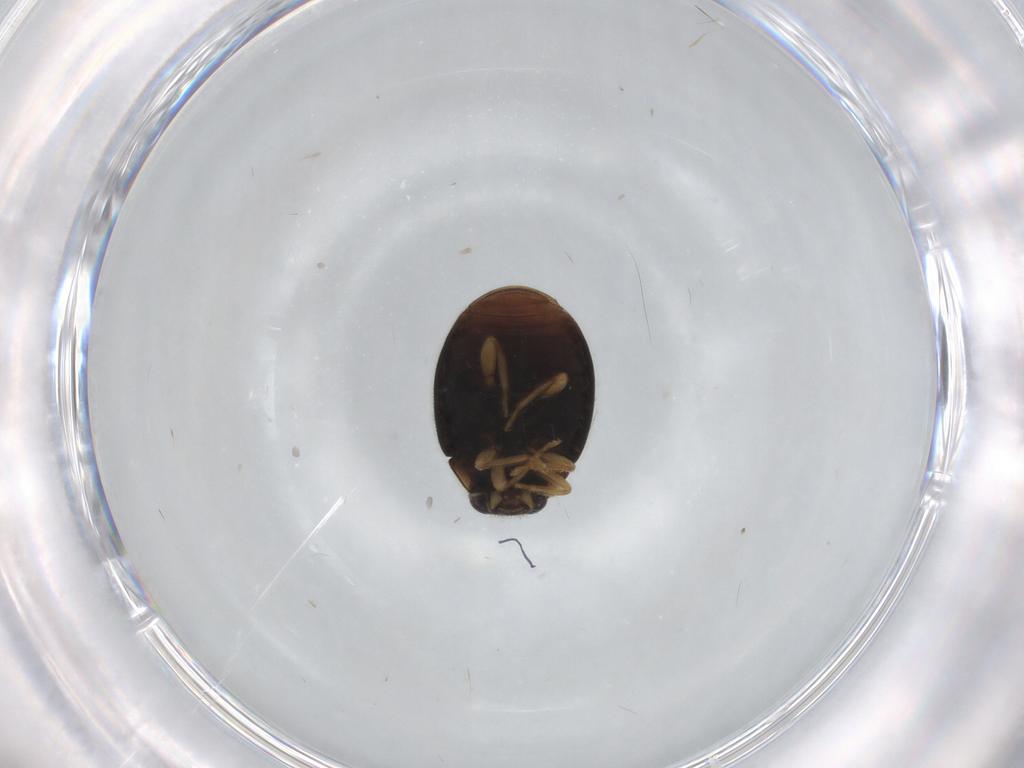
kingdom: Animalia
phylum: Arthropoda
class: Insecta
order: Coleoptera
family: Coccinellidae
